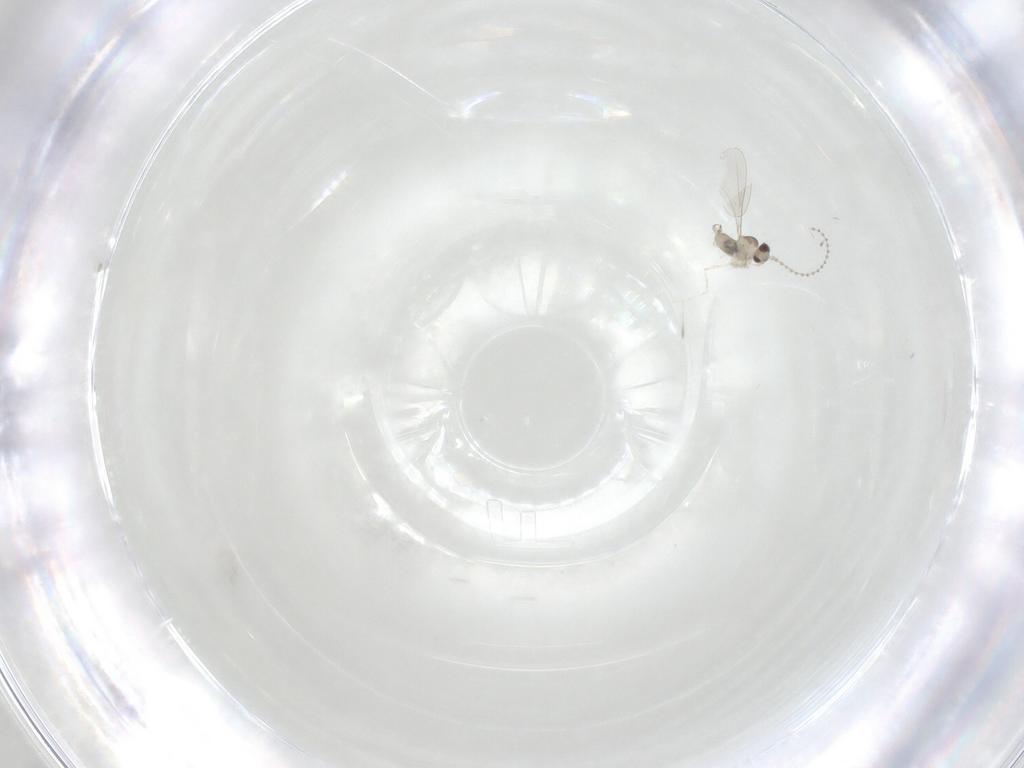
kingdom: Animalia
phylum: Arthropoda
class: Insecta
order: Diptera
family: Cecidomyiidae
